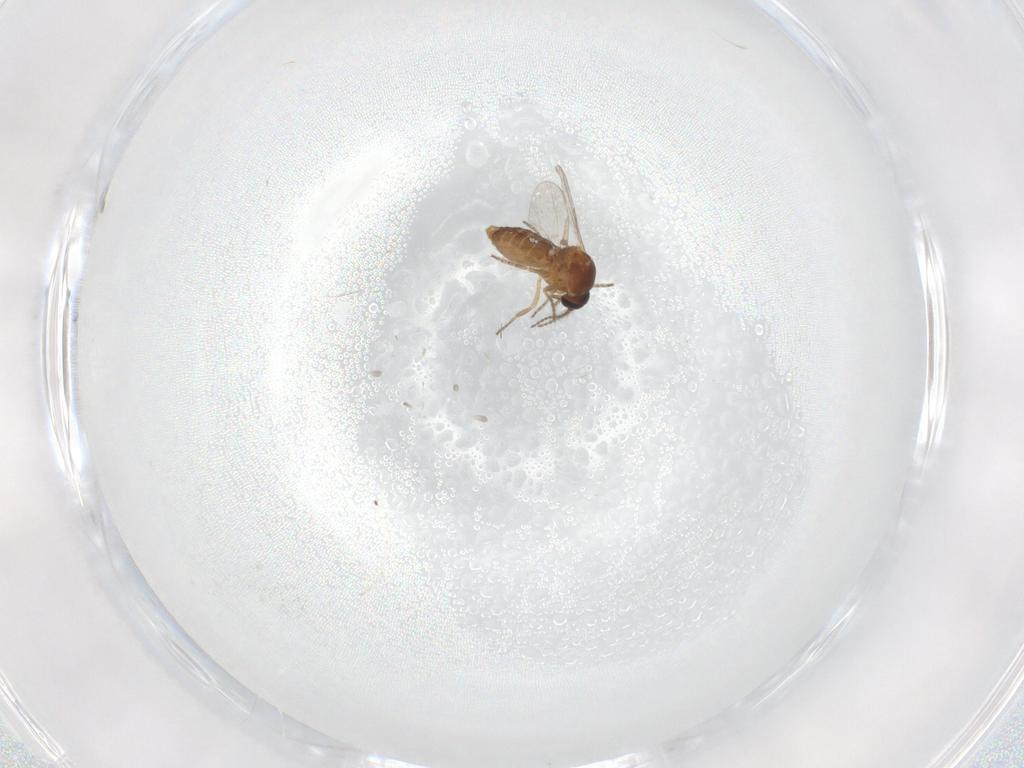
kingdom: Animalia
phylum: Arthropoda
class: Insecta
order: Diptera
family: Ceratopogonidae
